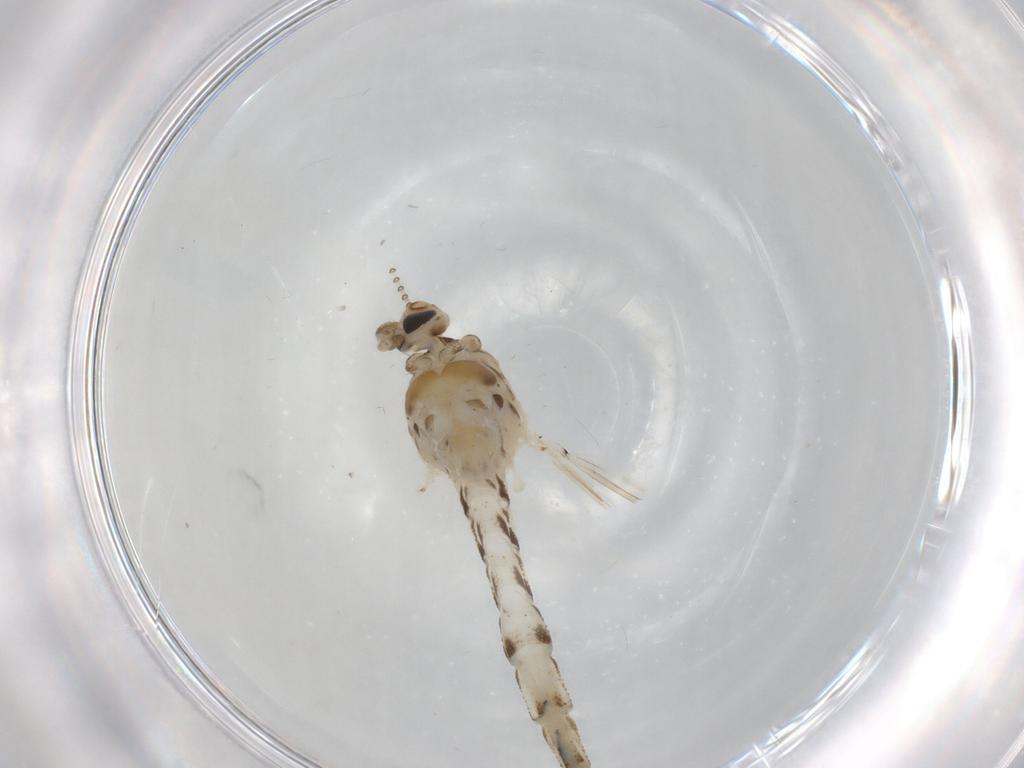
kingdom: Animalia
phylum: Arthropoda
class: Insecta
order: Diptera
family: Chaoboridae
